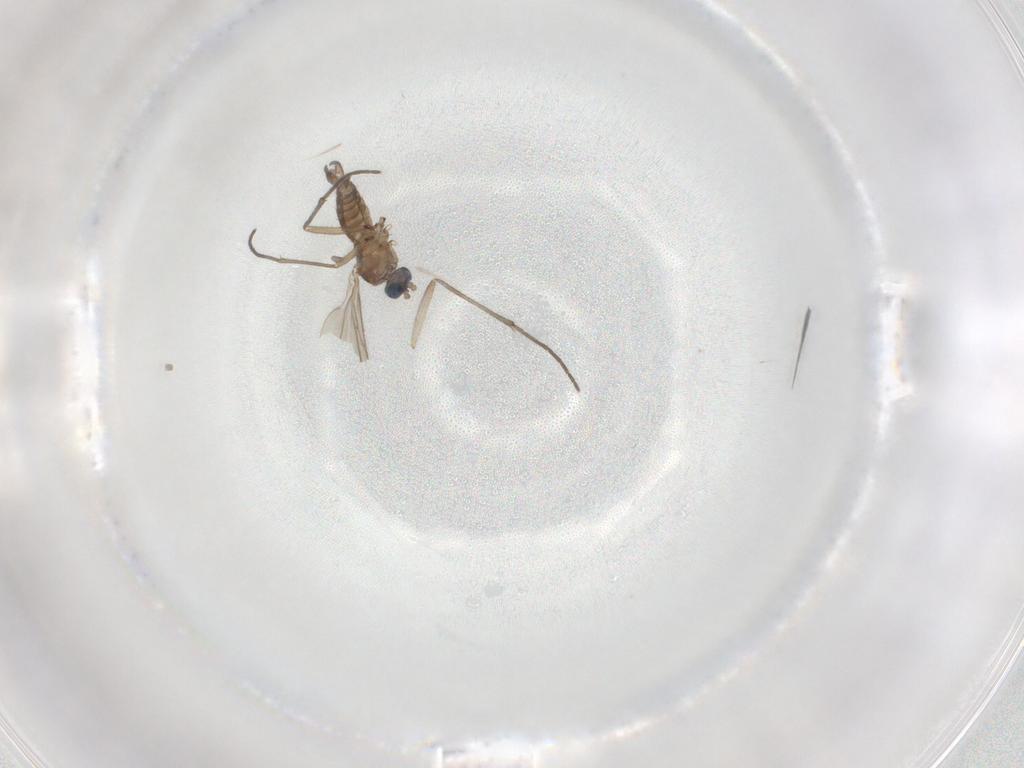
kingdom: Animalia
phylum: Arthropoda
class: Insecta
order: Diptera
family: Sciaridae
